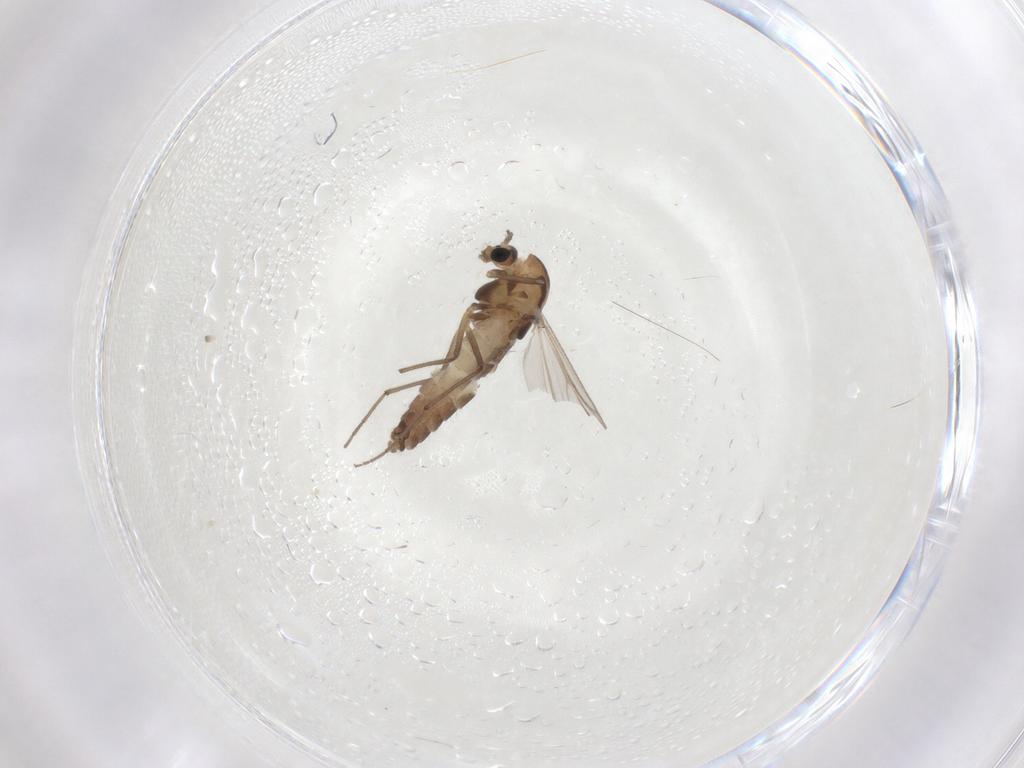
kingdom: Animalia
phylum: Arthropoda
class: Insecta
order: Diptera
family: Chironomidae
